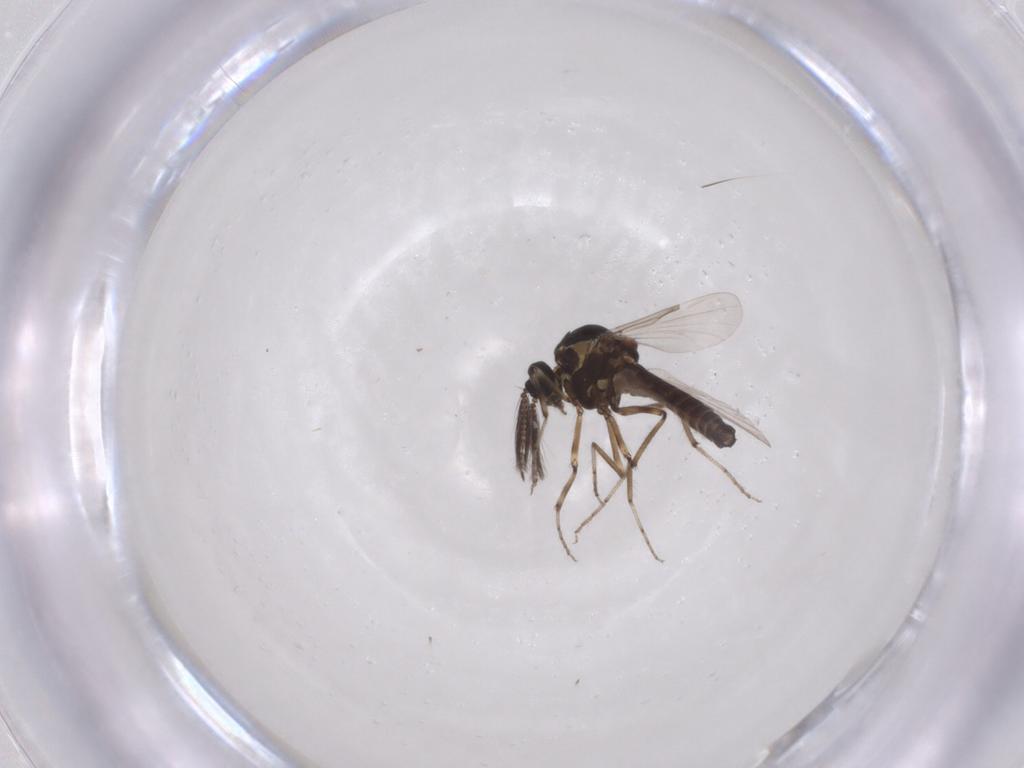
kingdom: Animalia
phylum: Arthropoda
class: Insecta
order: Diptera
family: Ceratopogonidae
